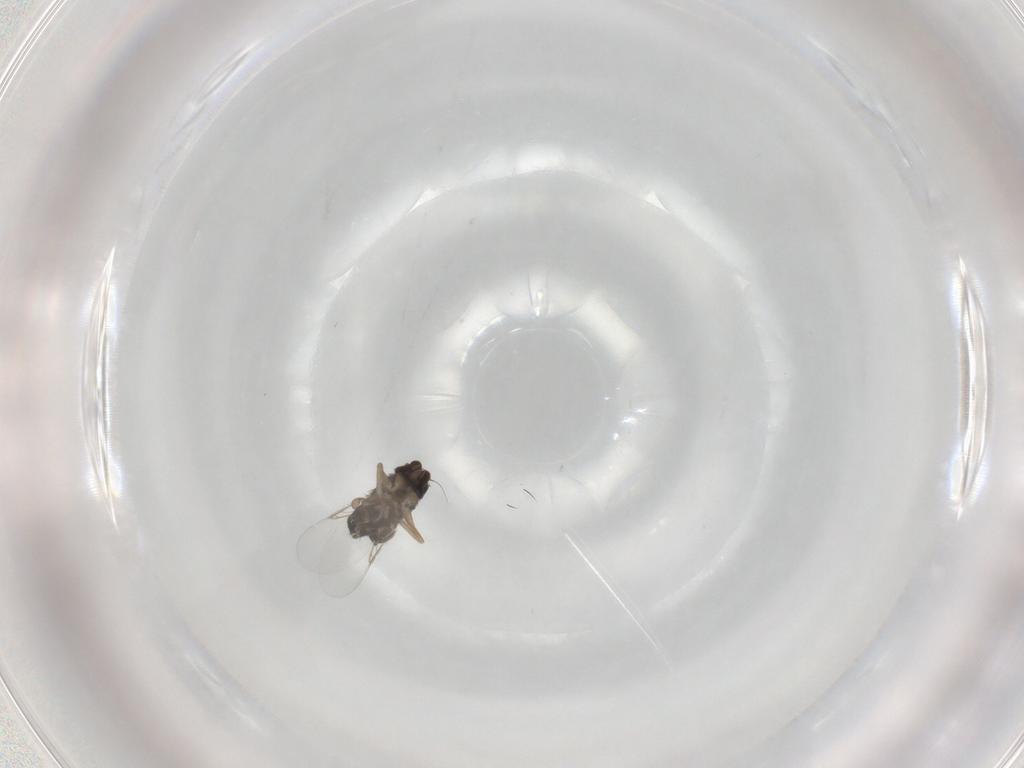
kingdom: Animalia
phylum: Arthropoda
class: Insecta
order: Diptera
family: Phoridae
